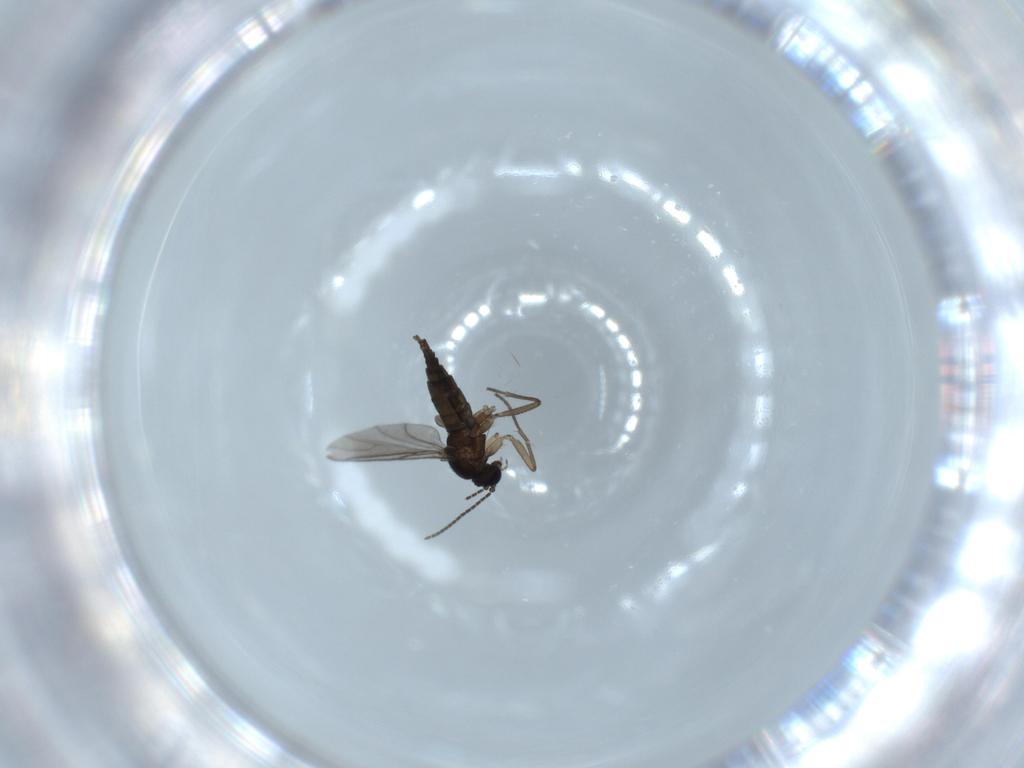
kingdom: Animalia
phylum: Arthropoda
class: Insecta
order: Diptera
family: Sciaridae
